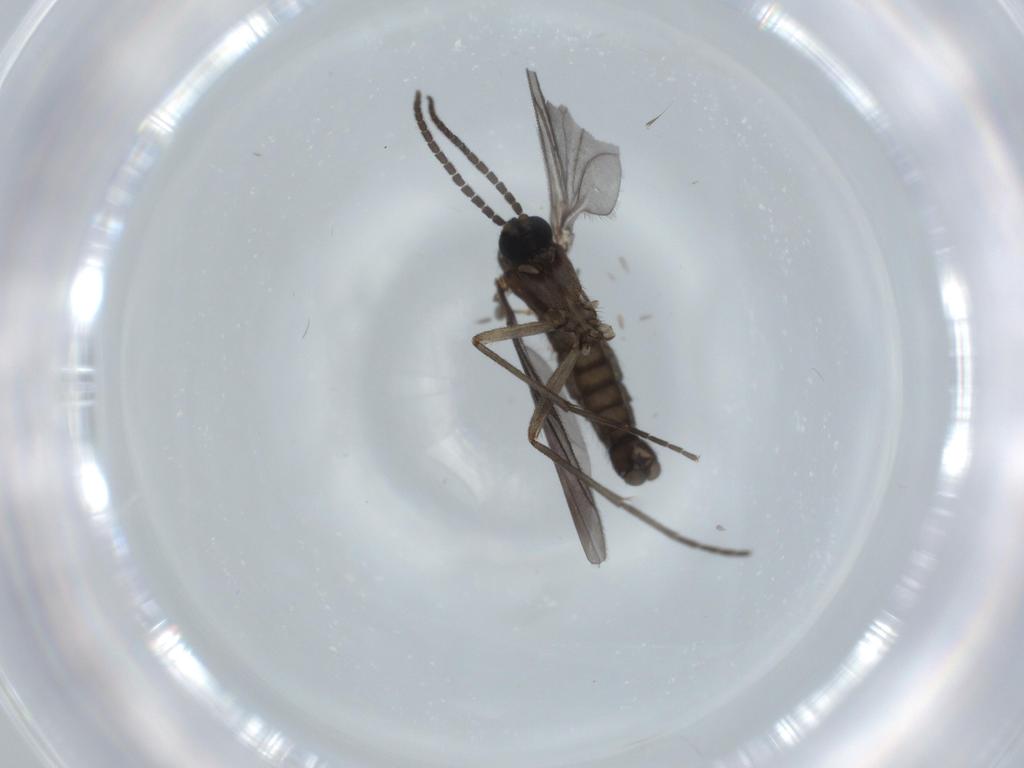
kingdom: Animalia
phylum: Arthropoda
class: Insecta
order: Diptera
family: Sciaridae
